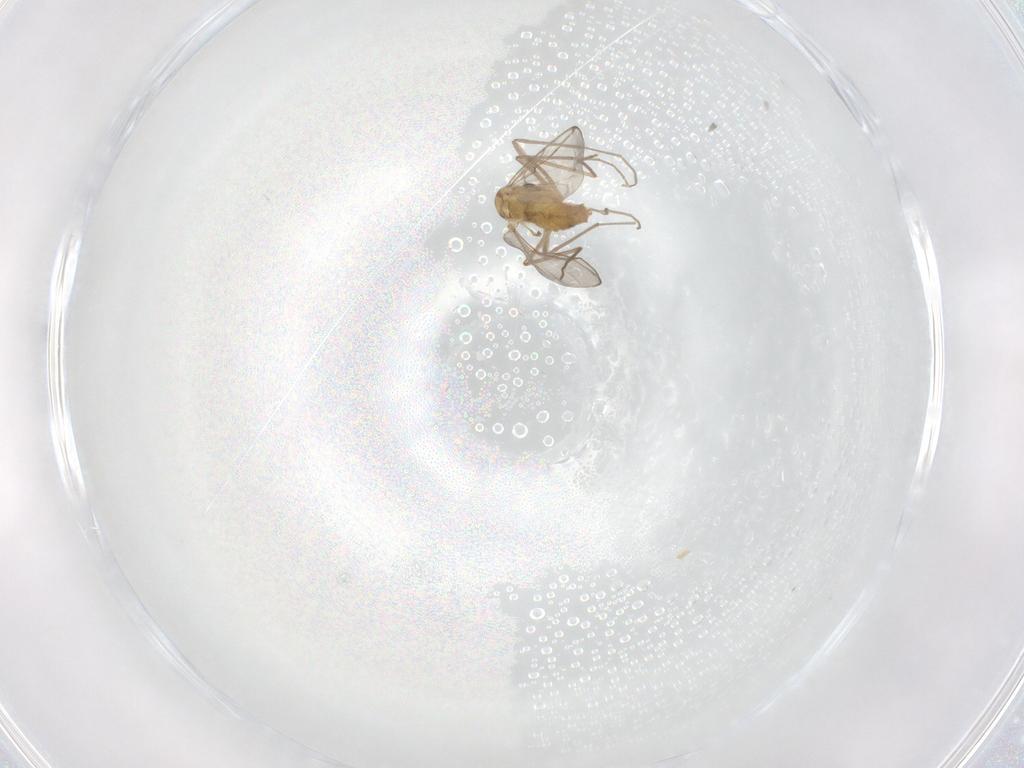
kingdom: Animalia
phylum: Arthropoda
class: Insecta
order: Diptera
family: Chironomidae
